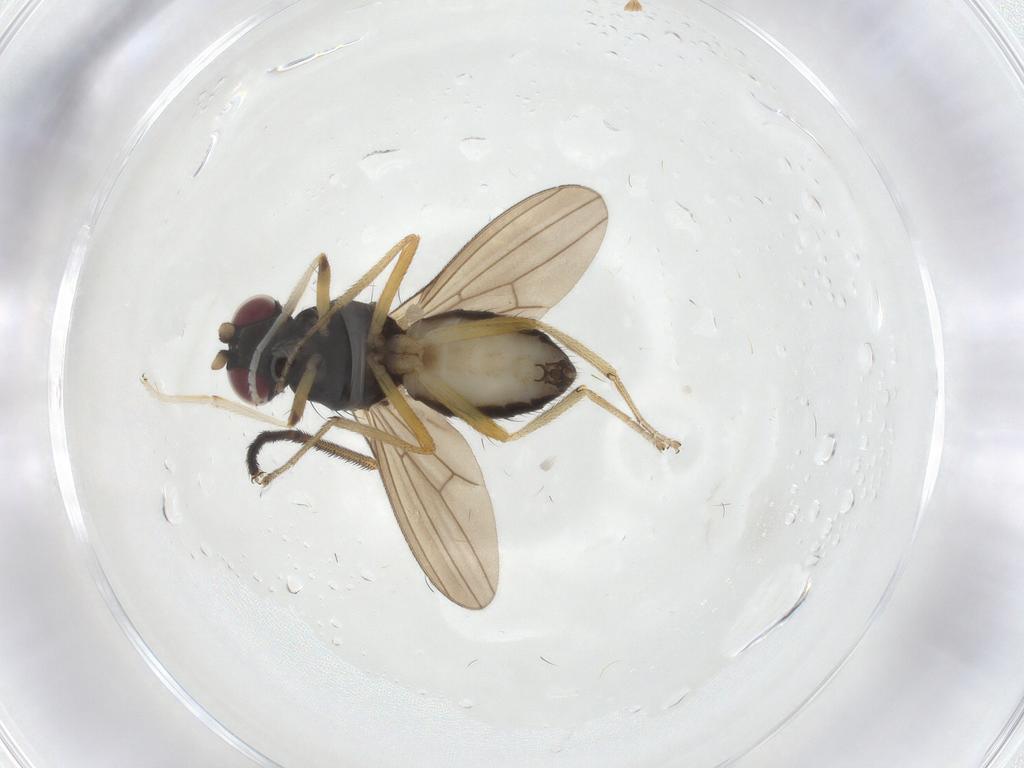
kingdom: Animalia
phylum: Arthropoda
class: Insecta
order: Diptera
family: Lauxaniidae
